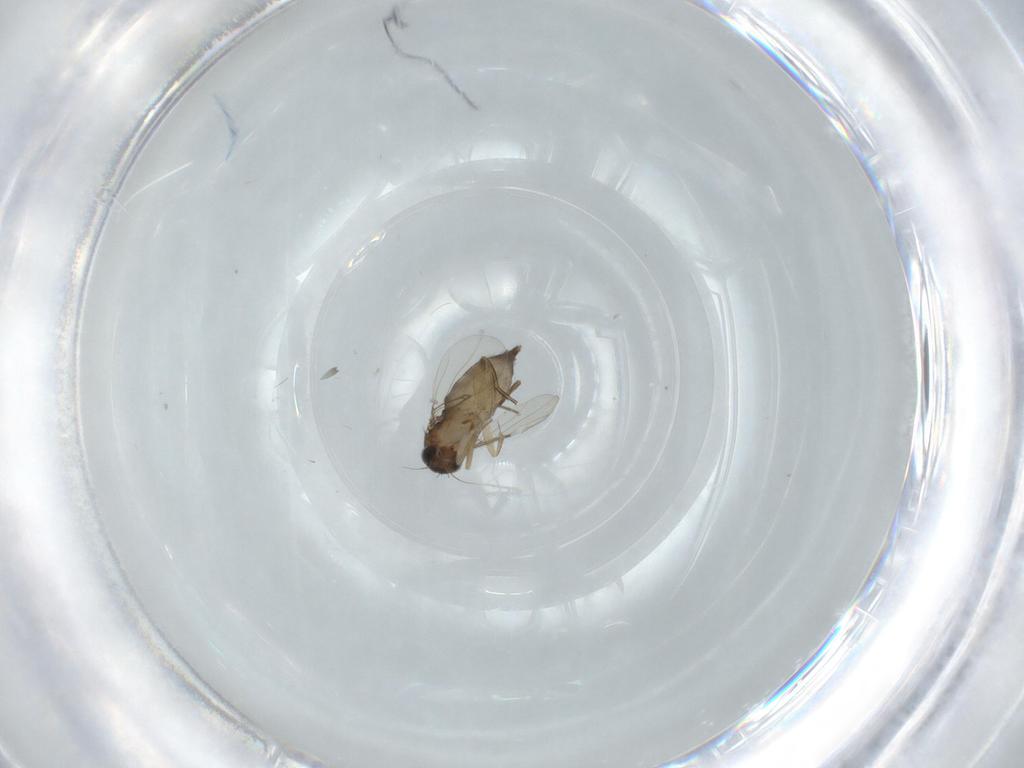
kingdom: Animalia
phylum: Arthropoda
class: Insecta
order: Diptera
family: Phoridae
